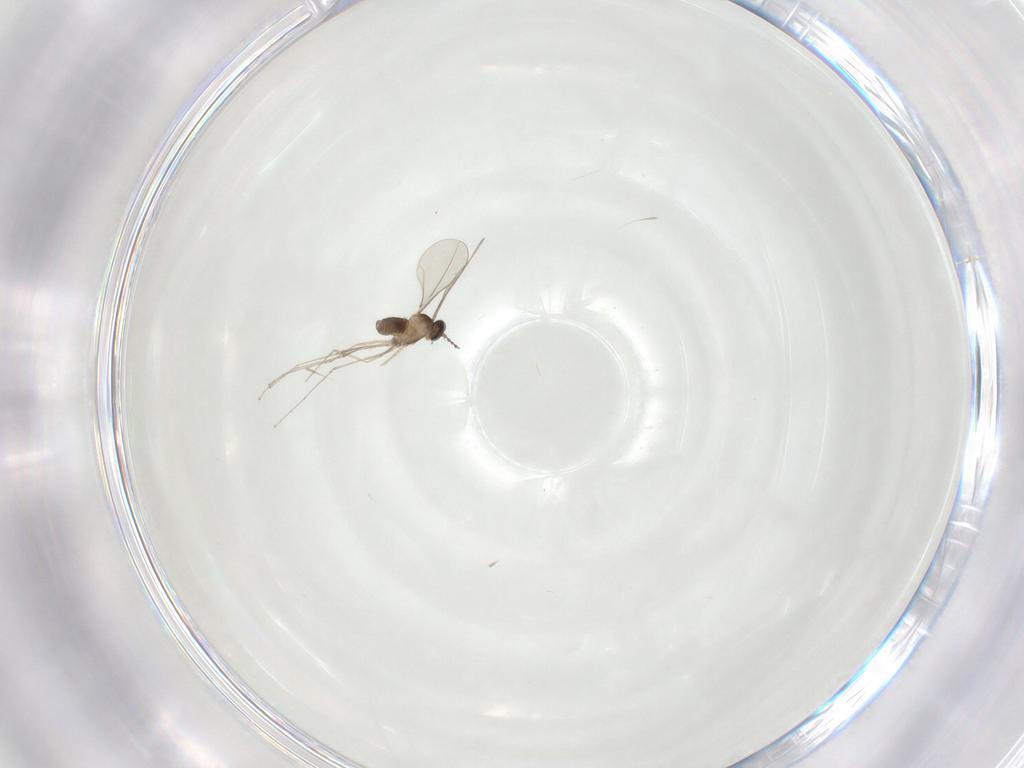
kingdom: Animalia
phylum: Arthropoda
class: Insecta
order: Diptera
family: Cecidomyiidae
